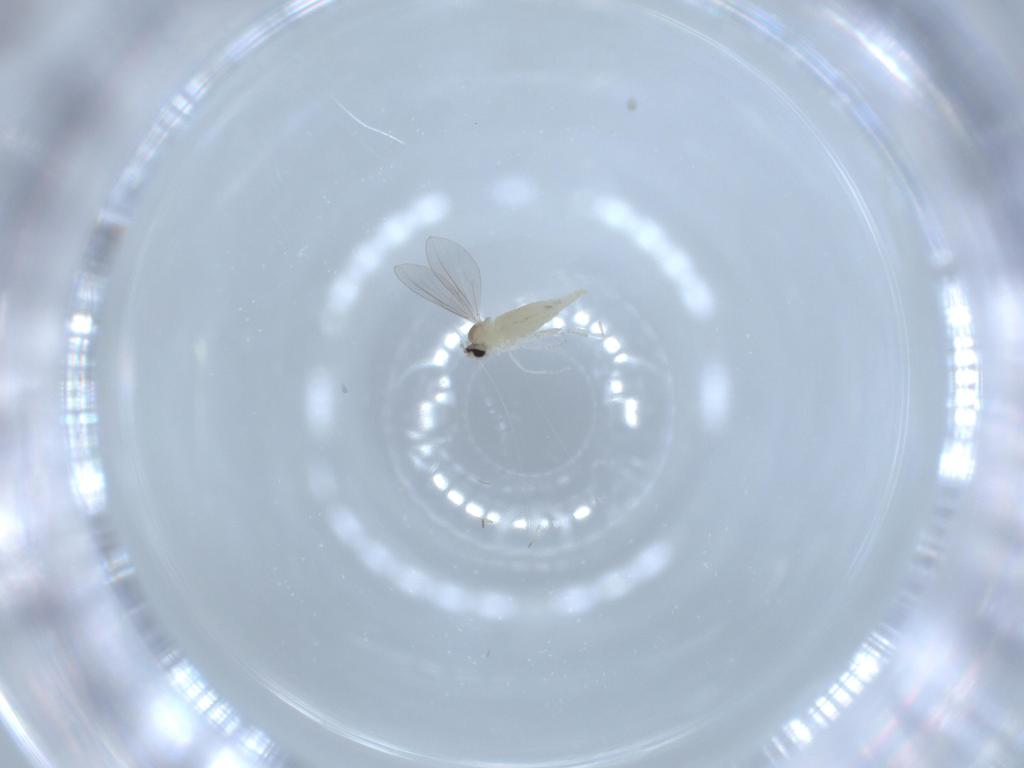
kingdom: Animalia
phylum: Arthropoda
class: Insecta
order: Diptera
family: Cecidomyiidae
